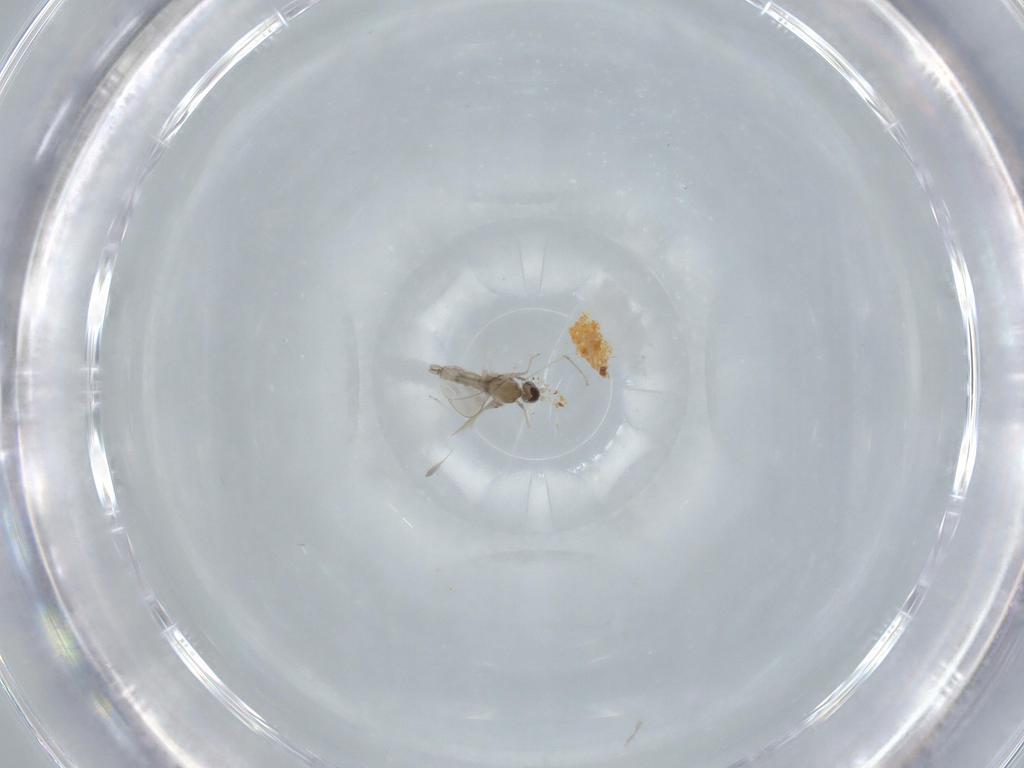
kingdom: Animalia
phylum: Arthropoda
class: Insecta
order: Diptera
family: Cecidomyiidae
